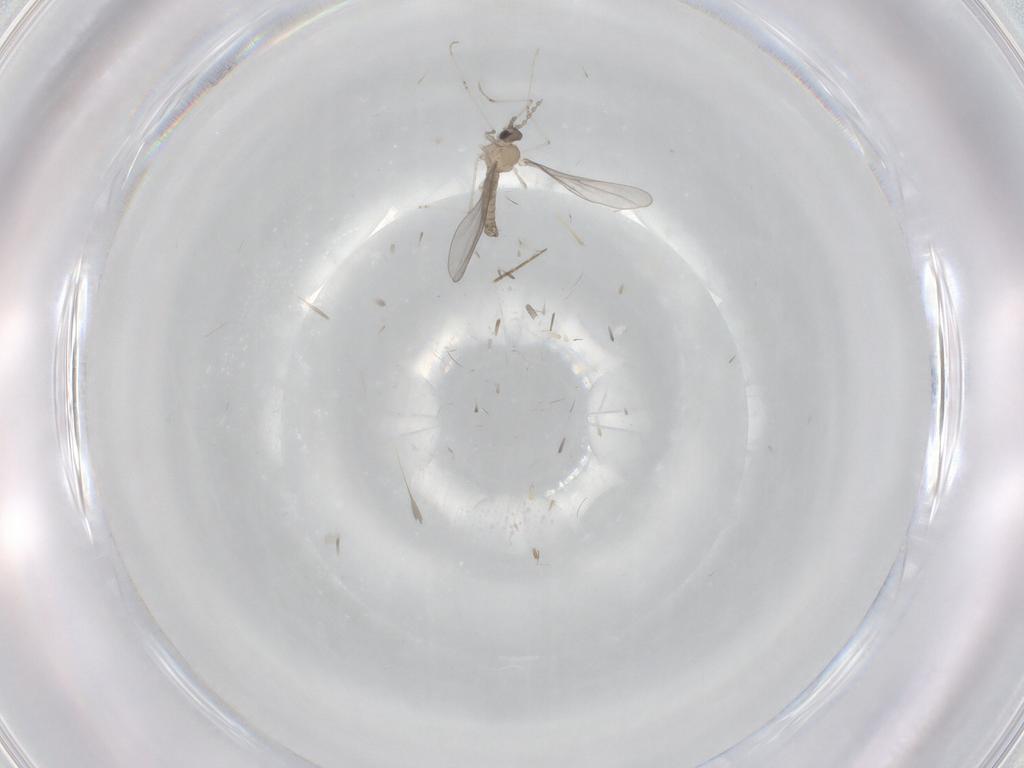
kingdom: Animalia
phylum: Arthropoda
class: Insecta
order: Diptera
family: Phoridae
